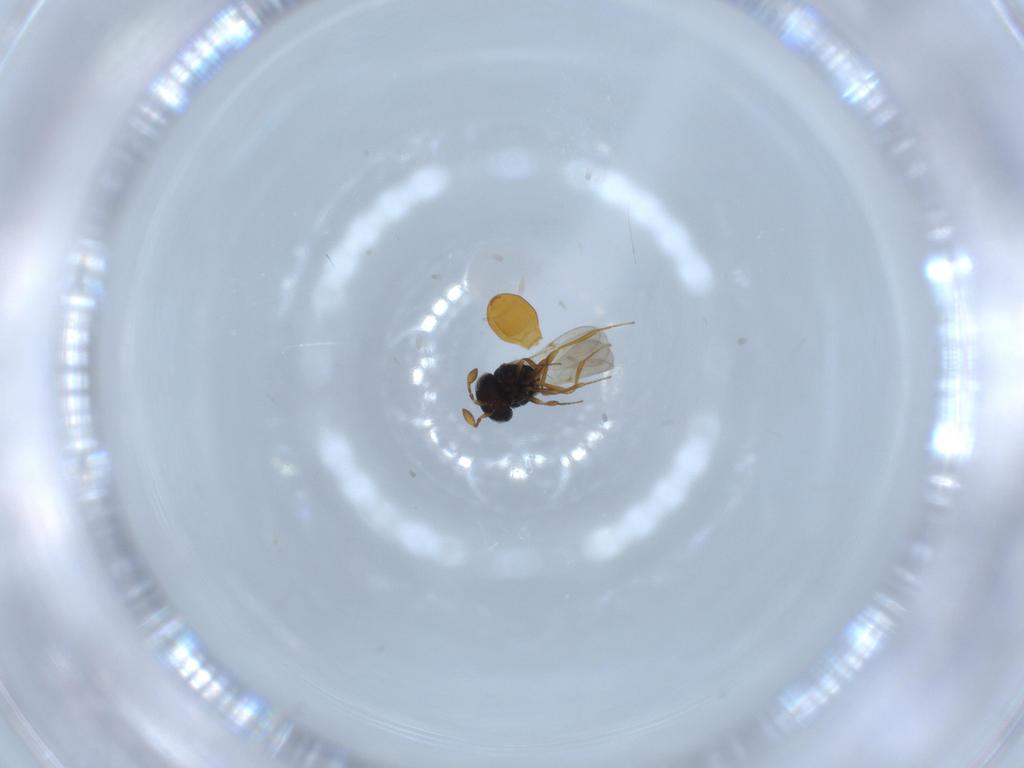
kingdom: Animalia
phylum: Arthropoda
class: Insecta
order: Hymenoptera
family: Scelionidae
